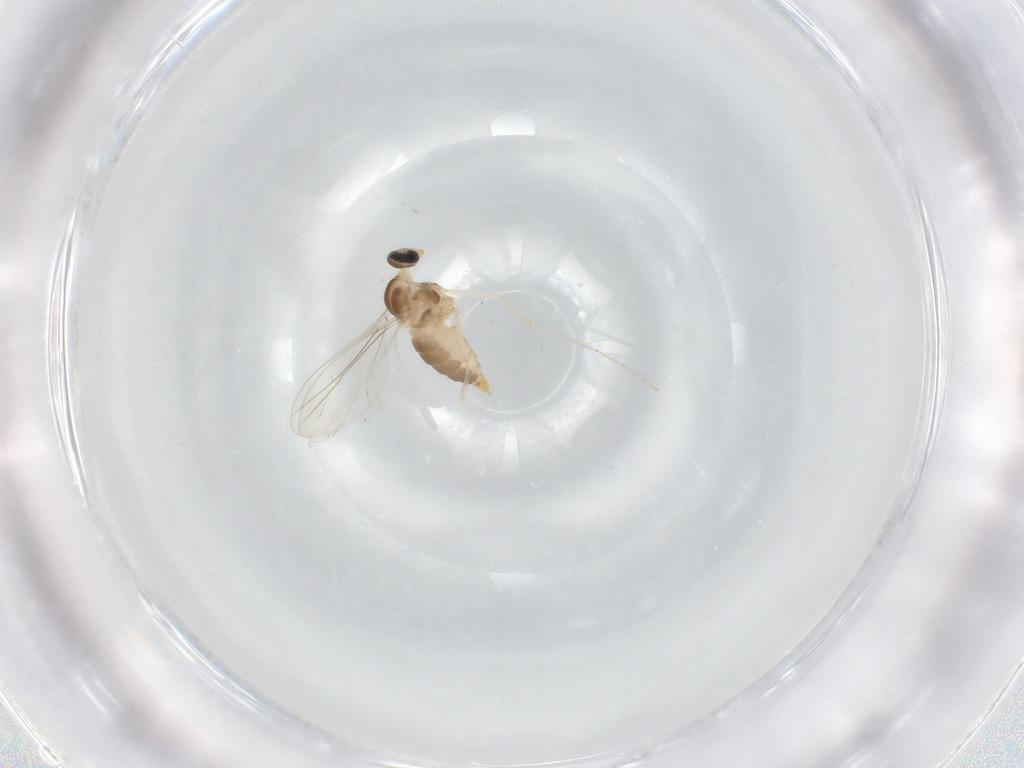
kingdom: Animalia
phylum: Arthropoda
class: Insecta
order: Diptera
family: Cecidomyiidae
